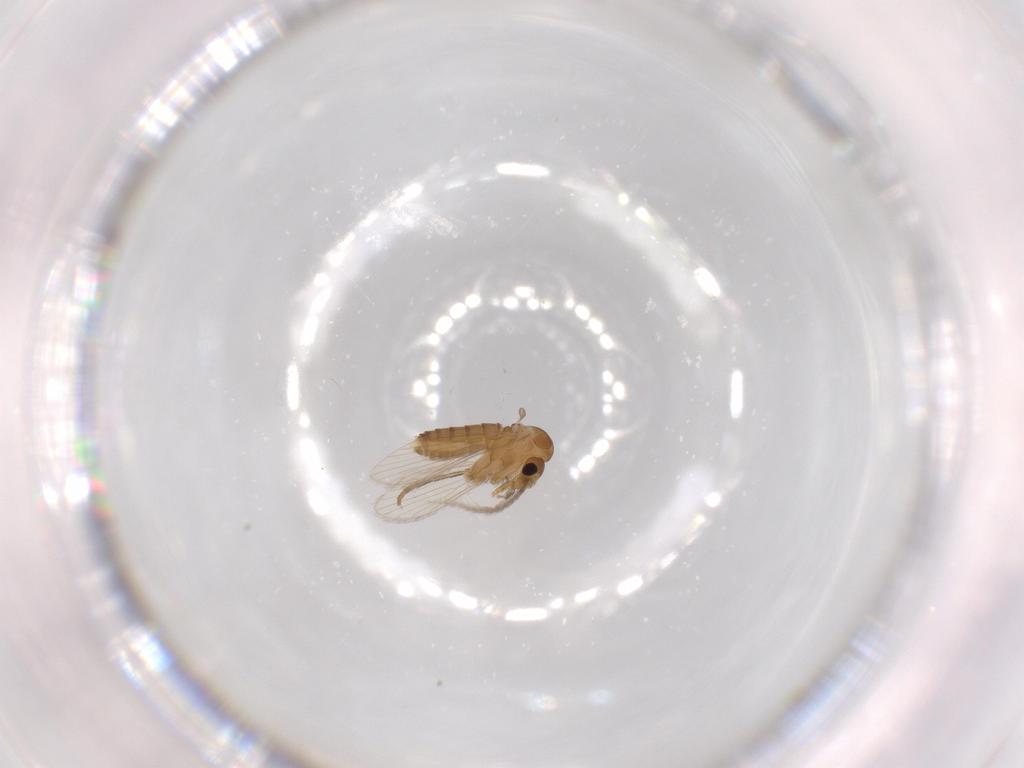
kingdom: Animalia
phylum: Arthropoda
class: Insecta
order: Diptera
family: Psychodidae
